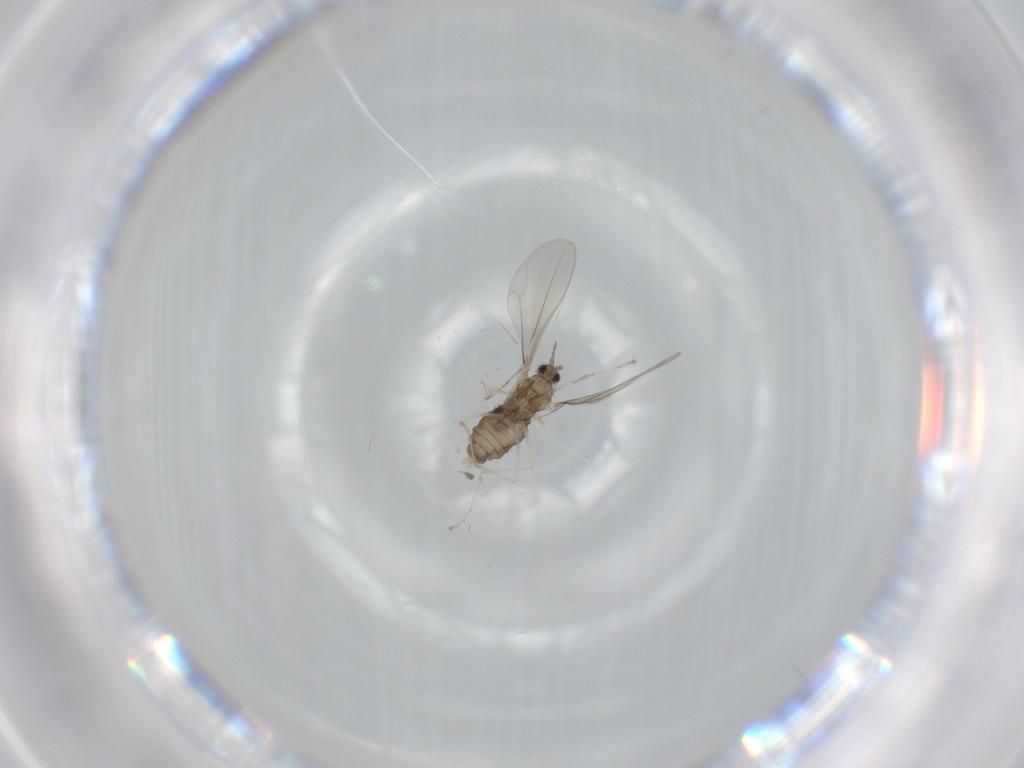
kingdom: Animalia
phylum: Arthropoda
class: Insecta
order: Diptera
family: Cecidomyiidae
